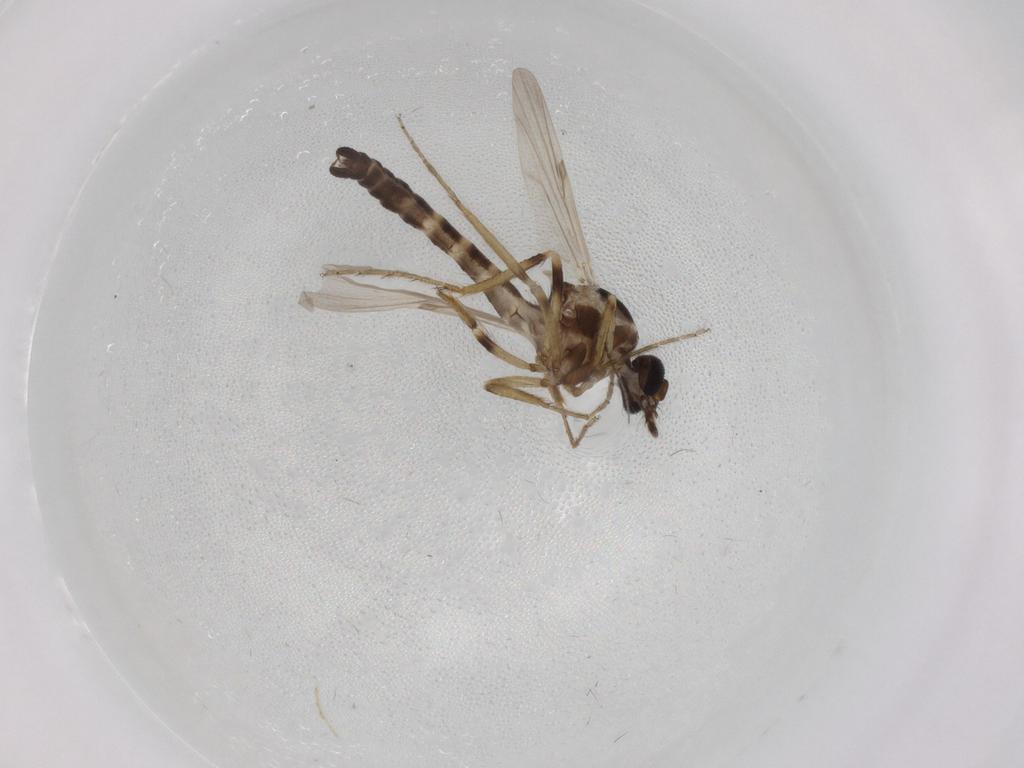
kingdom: Animalia
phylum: Arthropoda
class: Insecta
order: Diptera
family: Ceratopogonidae
